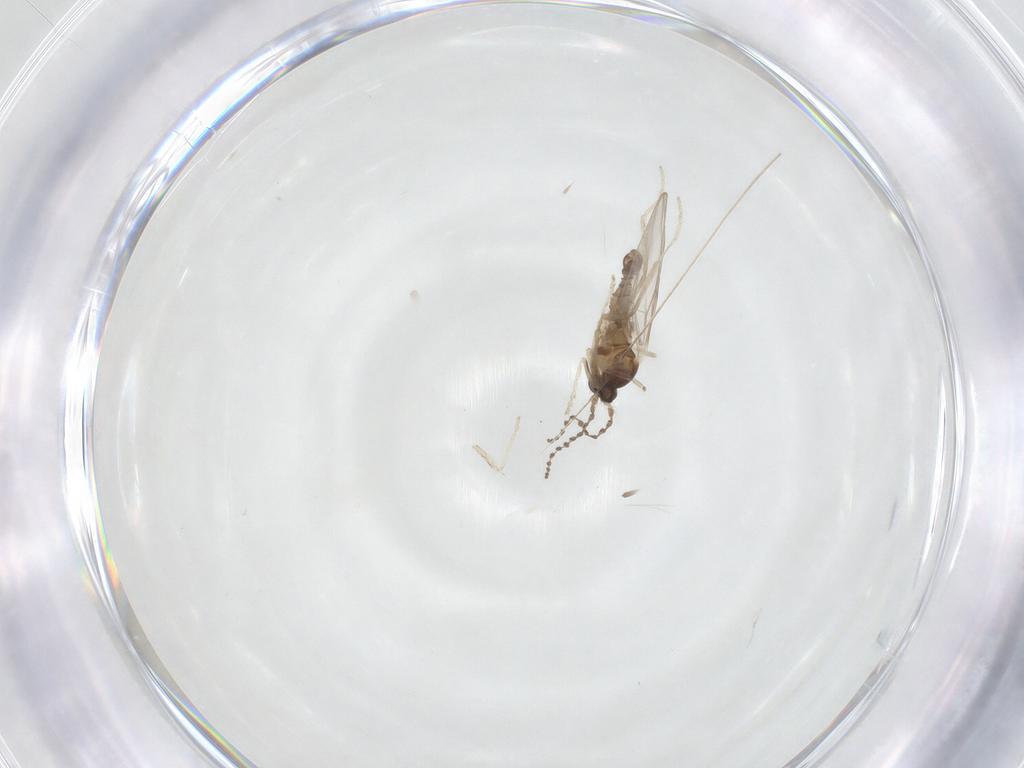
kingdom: Animalia
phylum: Arthropoda
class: Insecta
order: Diptera
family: Cecidomyiidae
